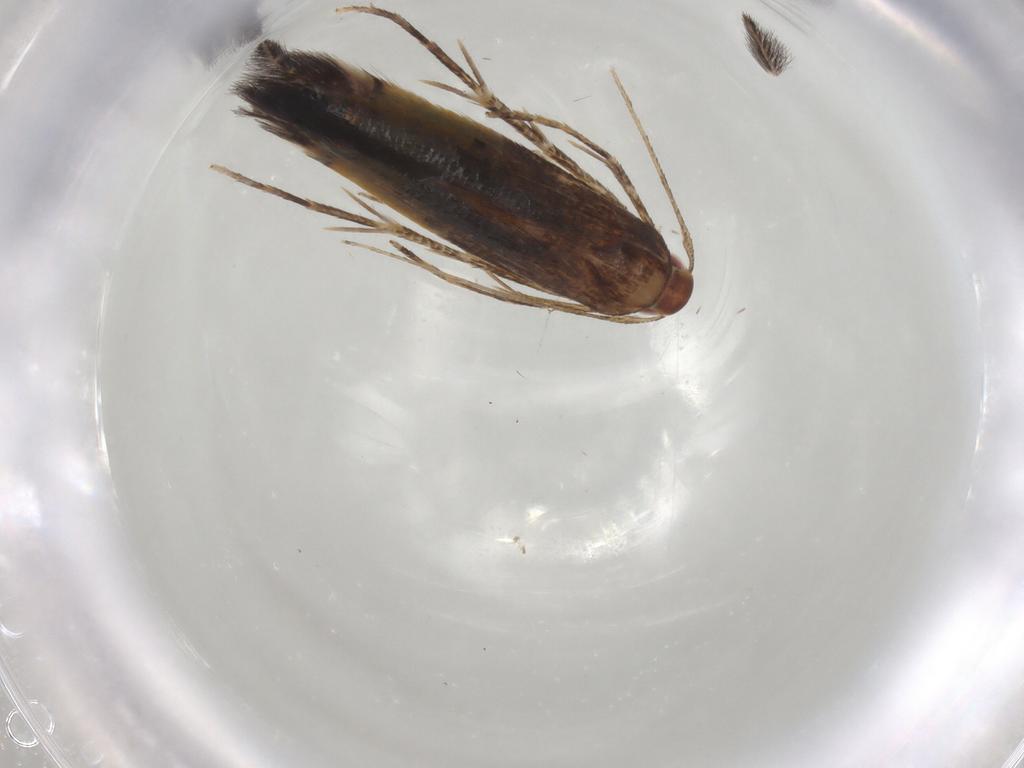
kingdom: Animalia
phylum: Arthropoda
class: Insecta
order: Lepidoptera
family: Cosmopterigidae
